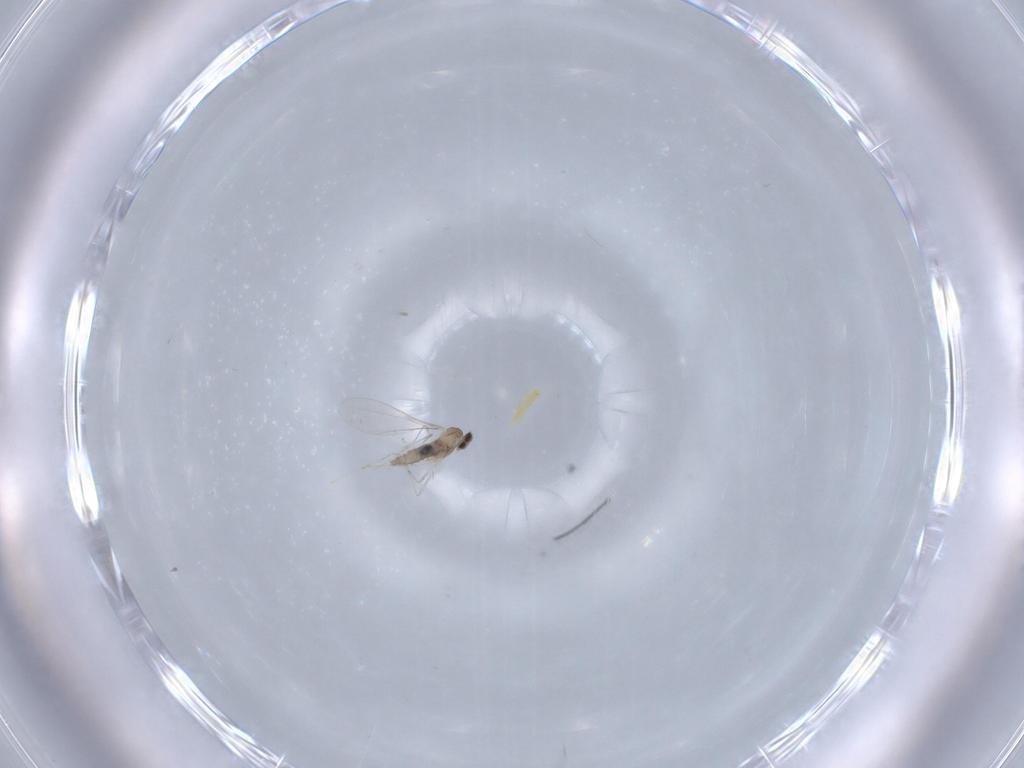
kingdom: Animalia
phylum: Arthropoda
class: Insecta
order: Diptera
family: Cecidomyiidae
